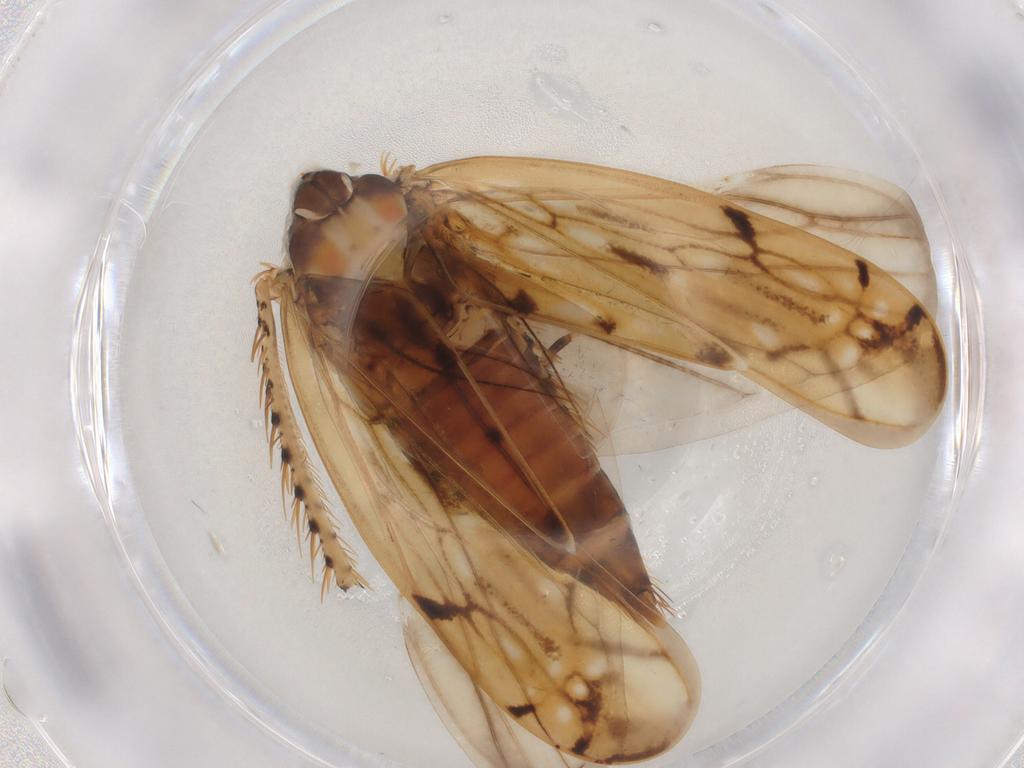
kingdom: Animalia
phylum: Arthropoda
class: Insecta
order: Hemiptera
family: Cicadellidae
